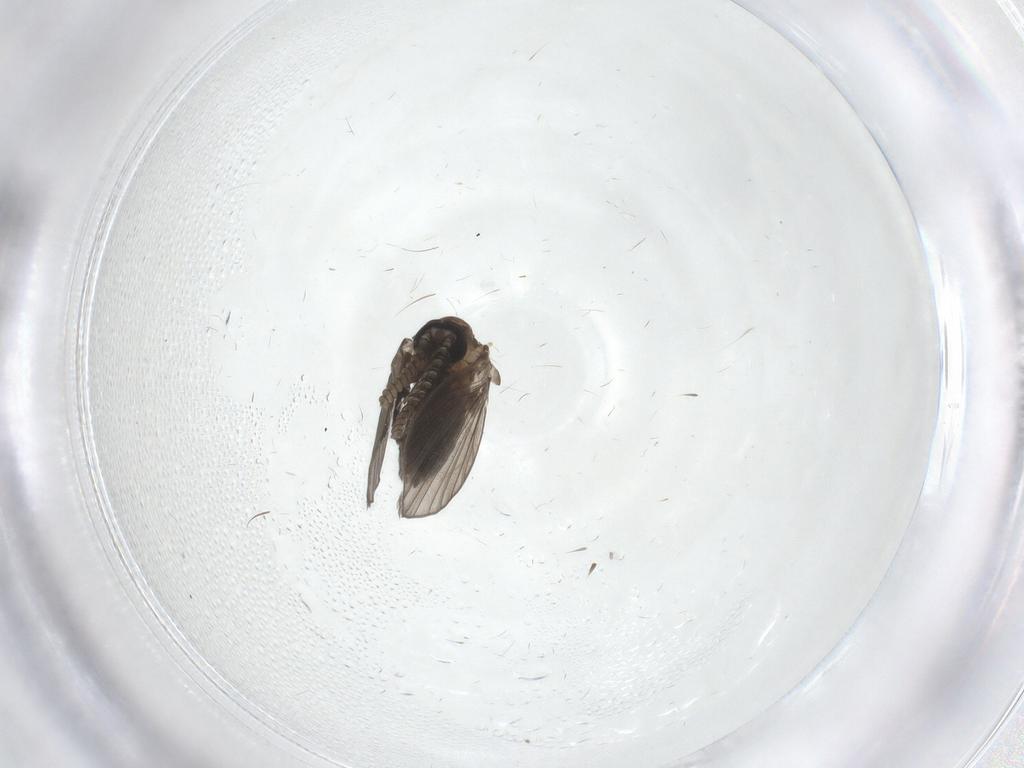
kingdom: Animalia
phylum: Arthropoda
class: Insecta
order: Diptera
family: Psychodidae
